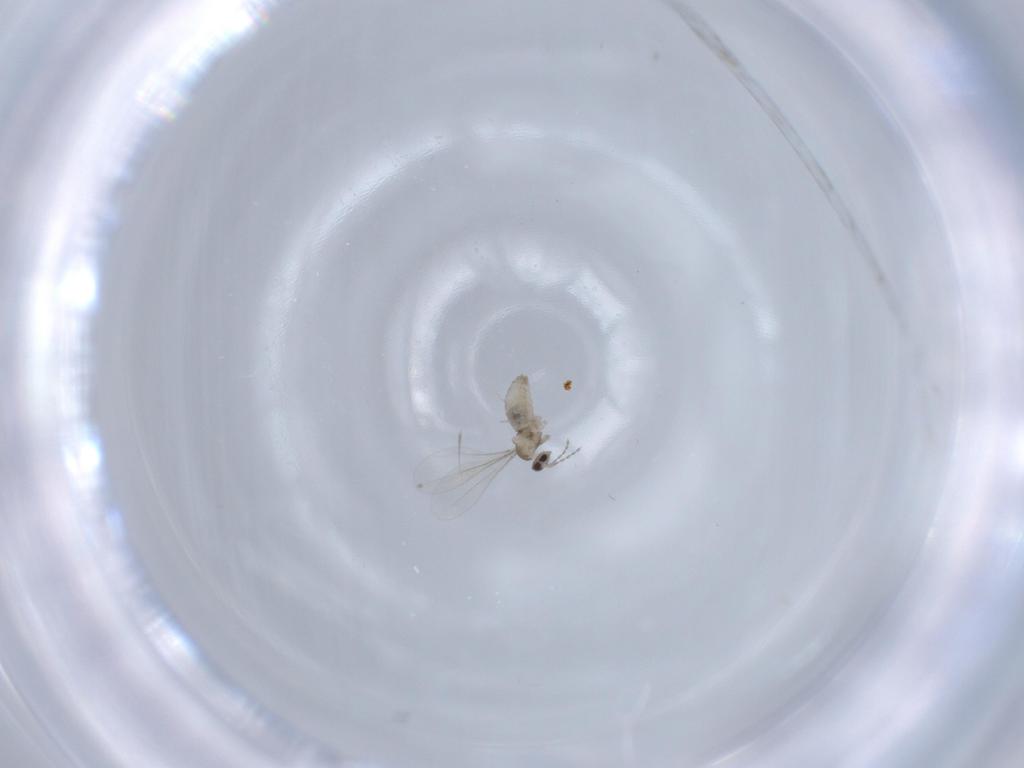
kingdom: Animalia
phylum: Arthropoda
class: Insecta
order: Diptera
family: Cecidomyiidae
